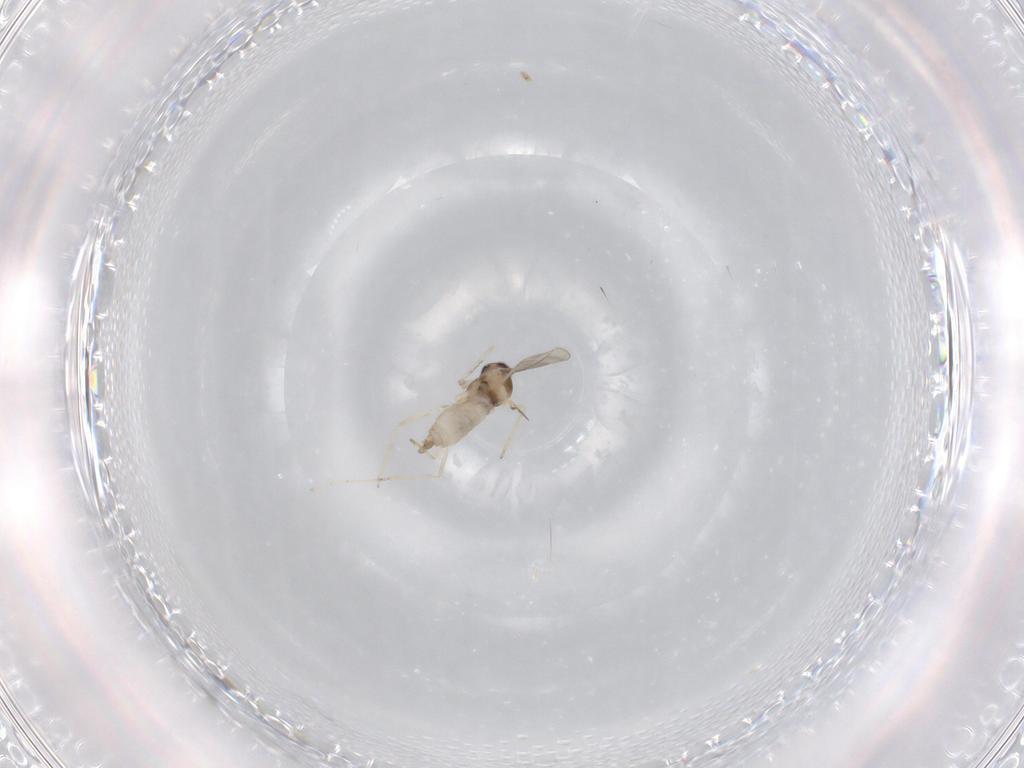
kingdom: Animalia
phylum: Arthropoda
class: Insecta
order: Diptera
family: Cecidomyiidae
